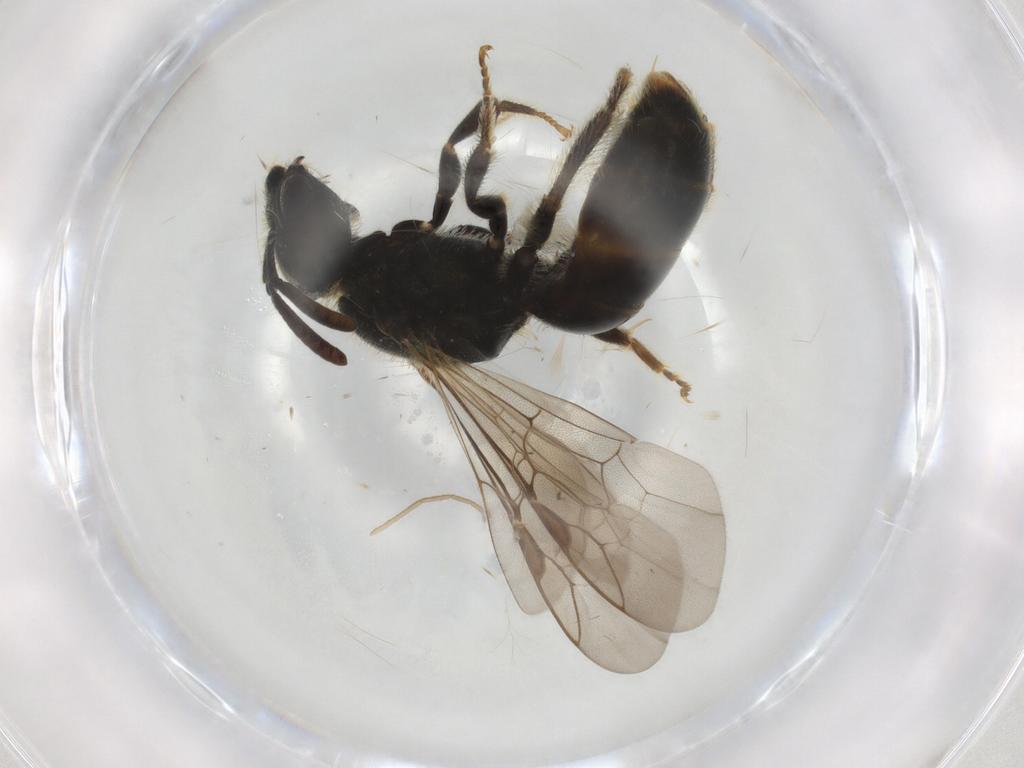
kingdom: Animalia
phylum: Arthropoda
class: Insecta
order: Hymenoptera
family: Halictidae
